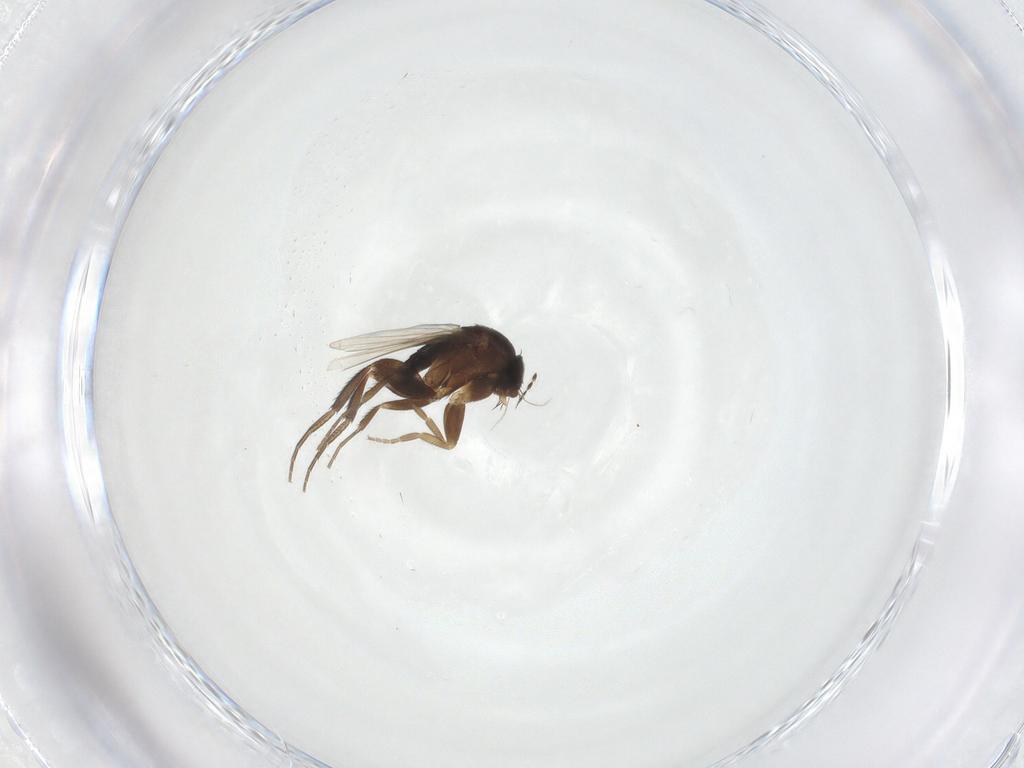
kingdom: Animalia
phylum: Arthropoda
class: Insecta
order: Diptera
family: Phoridae
